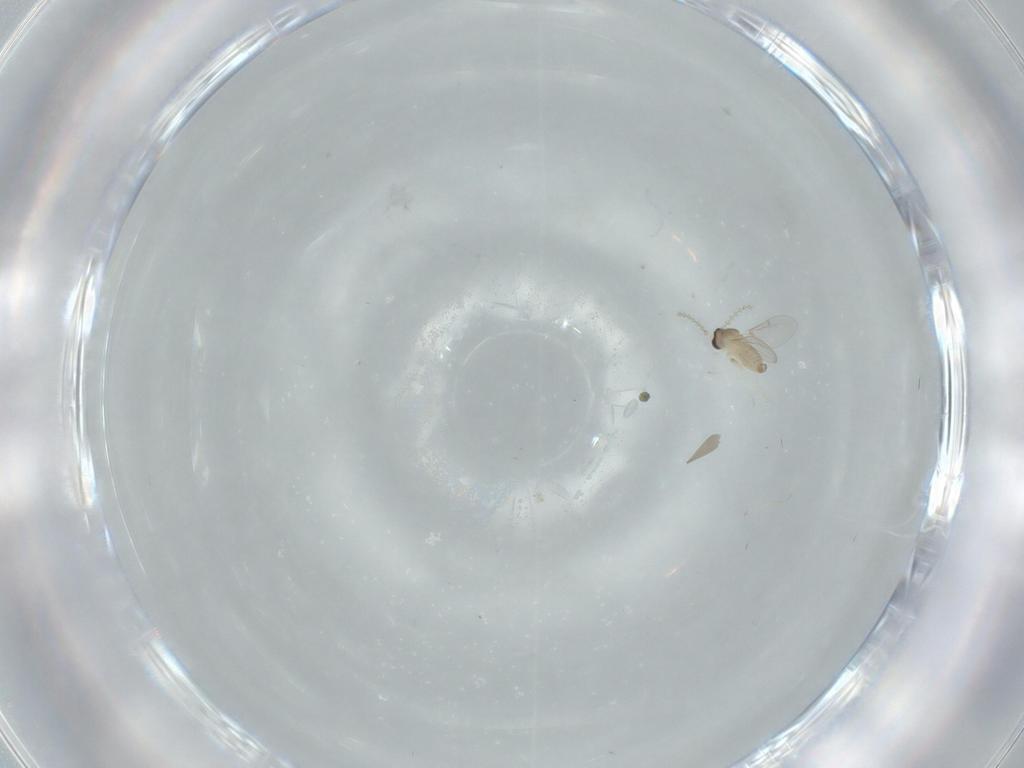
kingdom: Animalia
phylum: Arthropoda
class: Insecta
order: Diptera
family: Cecidomyiidae
